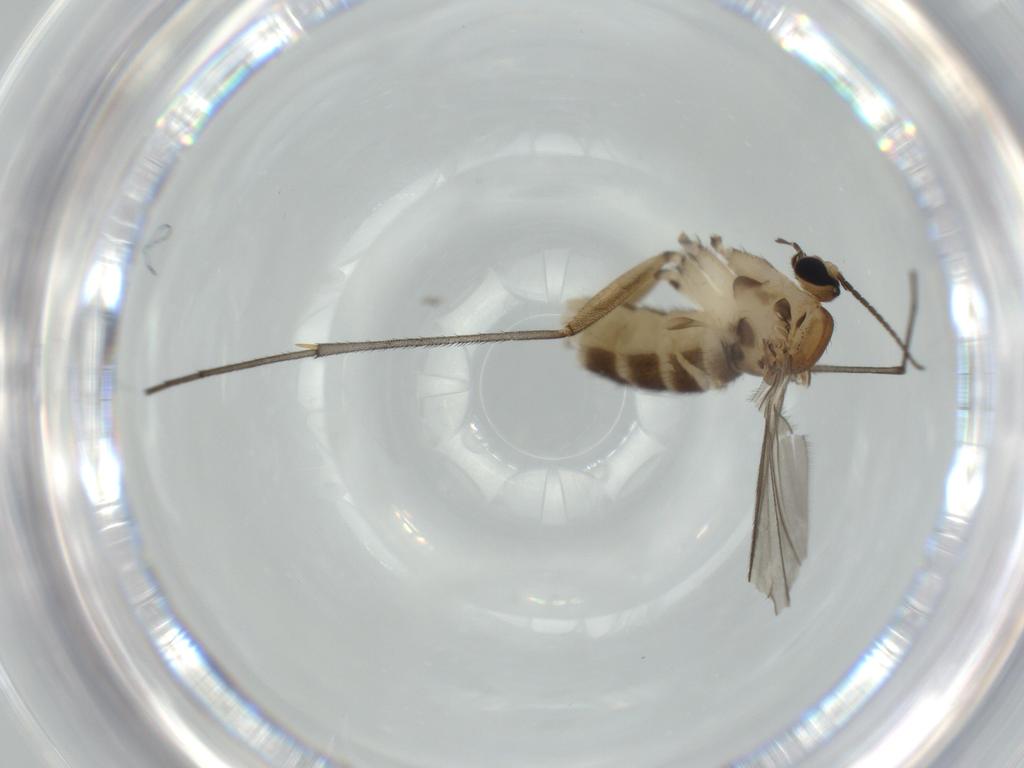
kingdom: Animalia
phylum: Arthropoda
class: Insecta
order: Diptera
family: Sciaridae
